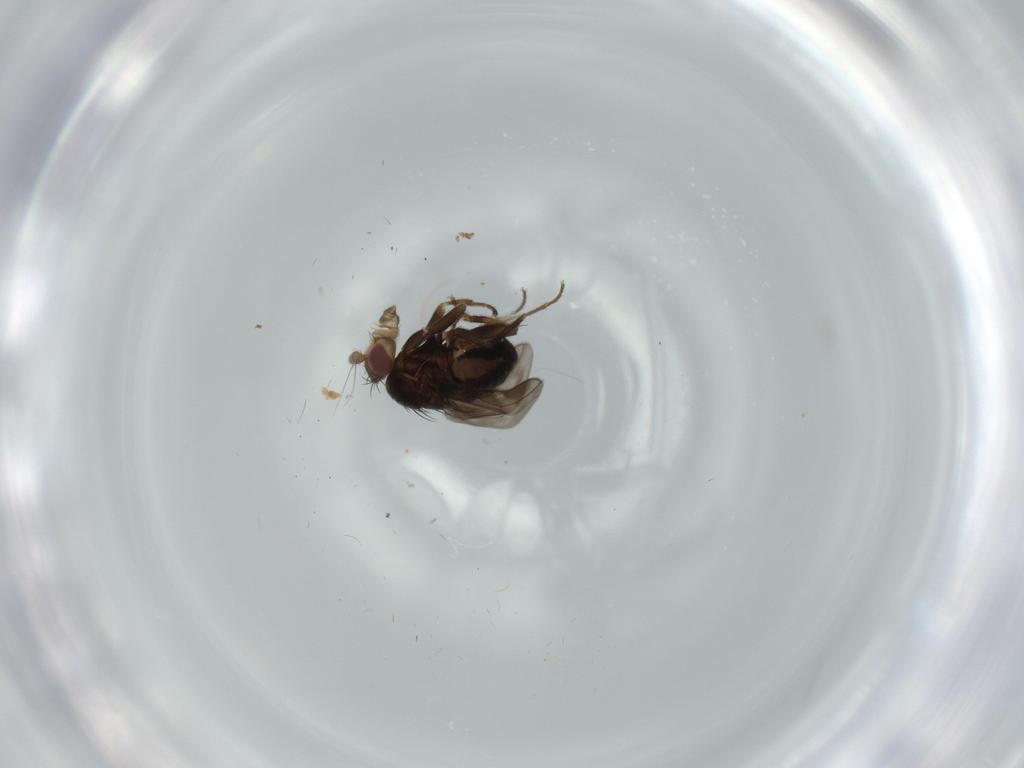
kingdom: Animalia
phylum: Arthropoda
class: Insecta
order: Diptera
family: Sphaeroceridae
